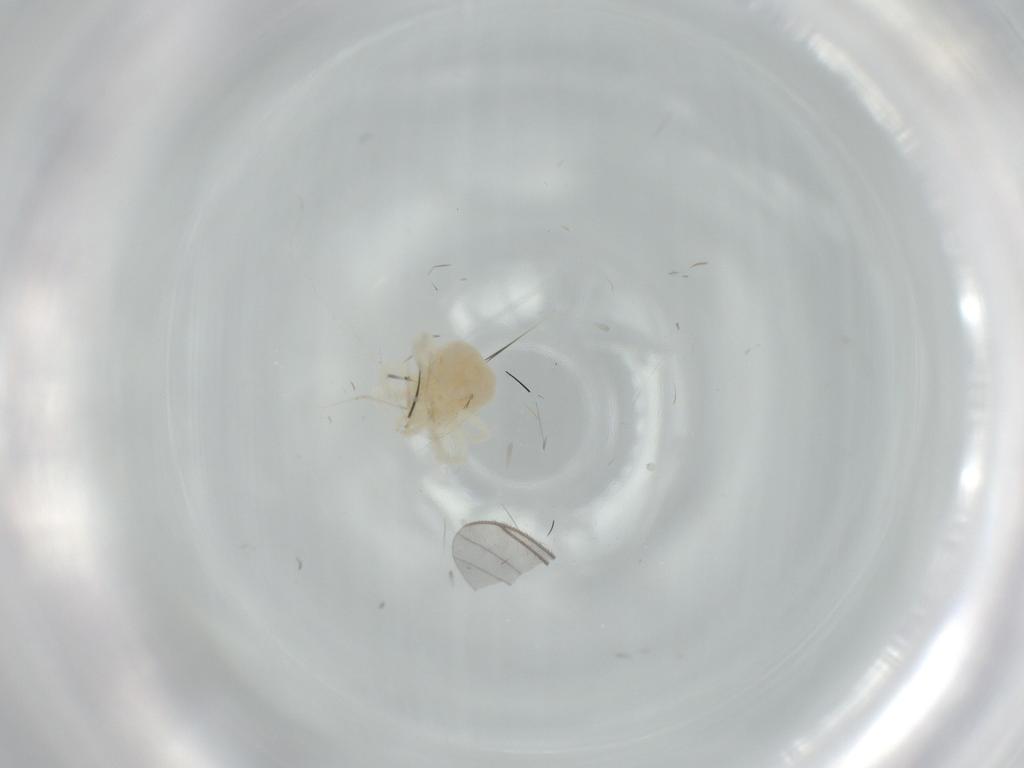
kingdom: Animalia
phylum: Arthropoda
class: Arachnida
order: Trombidiformes
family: Anystidae
